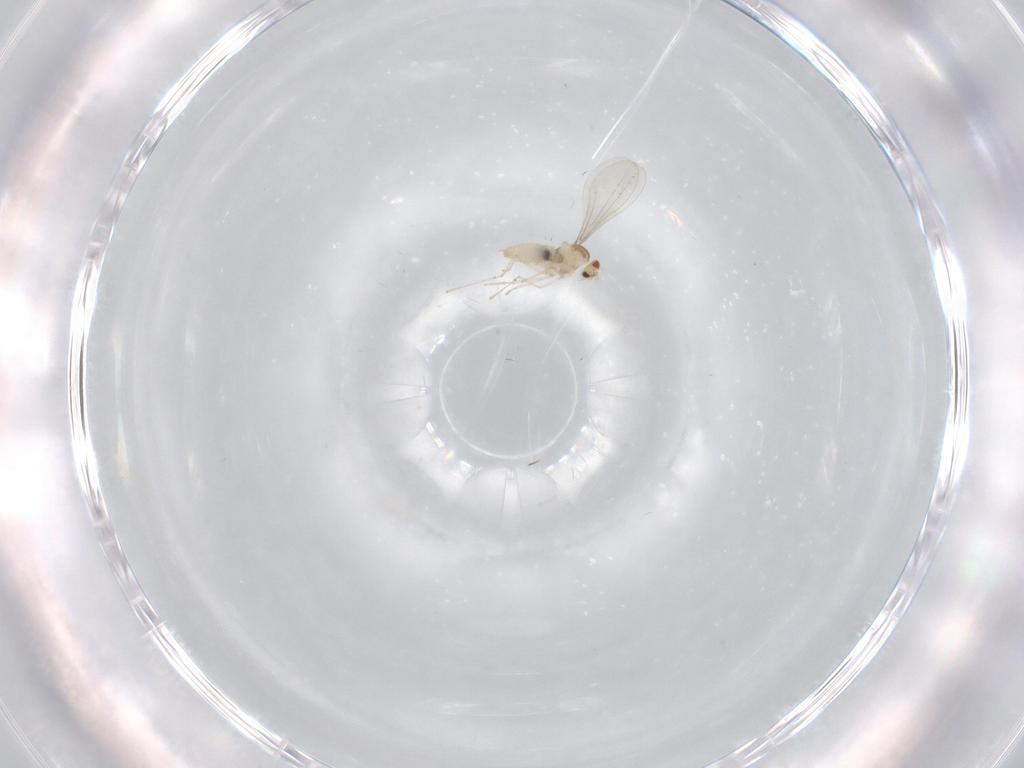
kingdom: Animalia
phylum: Arthropoda
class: Insecta
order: Diptera
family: Cecidomyiidae
